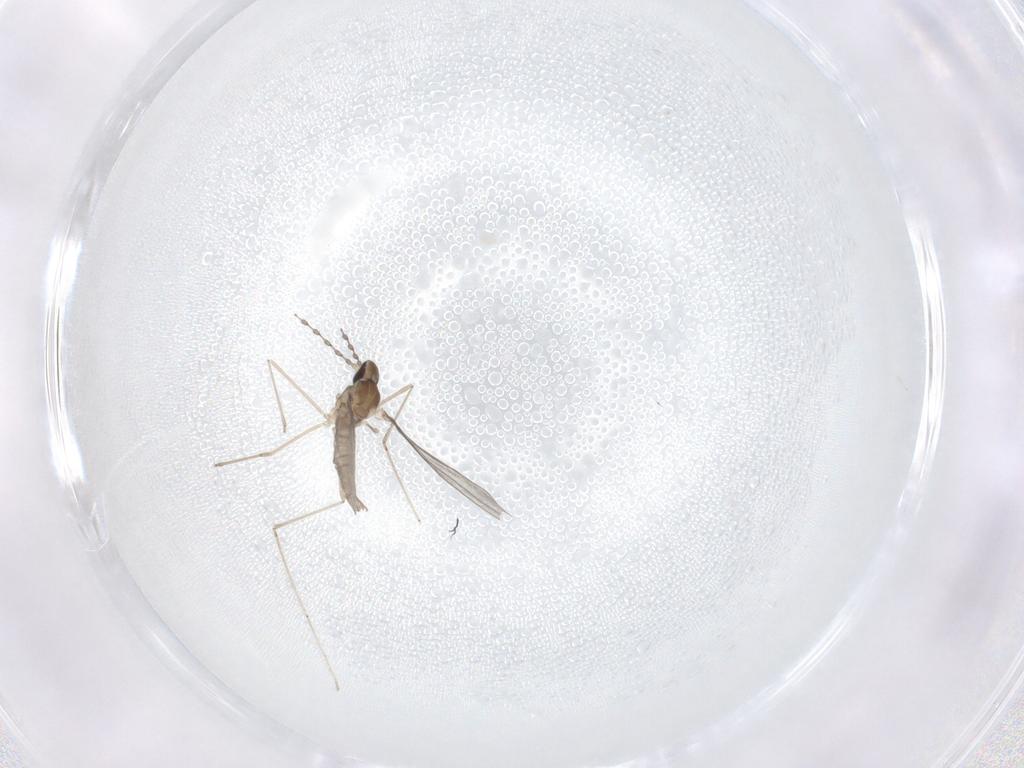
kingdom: Animalia
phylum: Arthropoda
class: Insecta
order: Diptera
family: Cecidomyiidae
